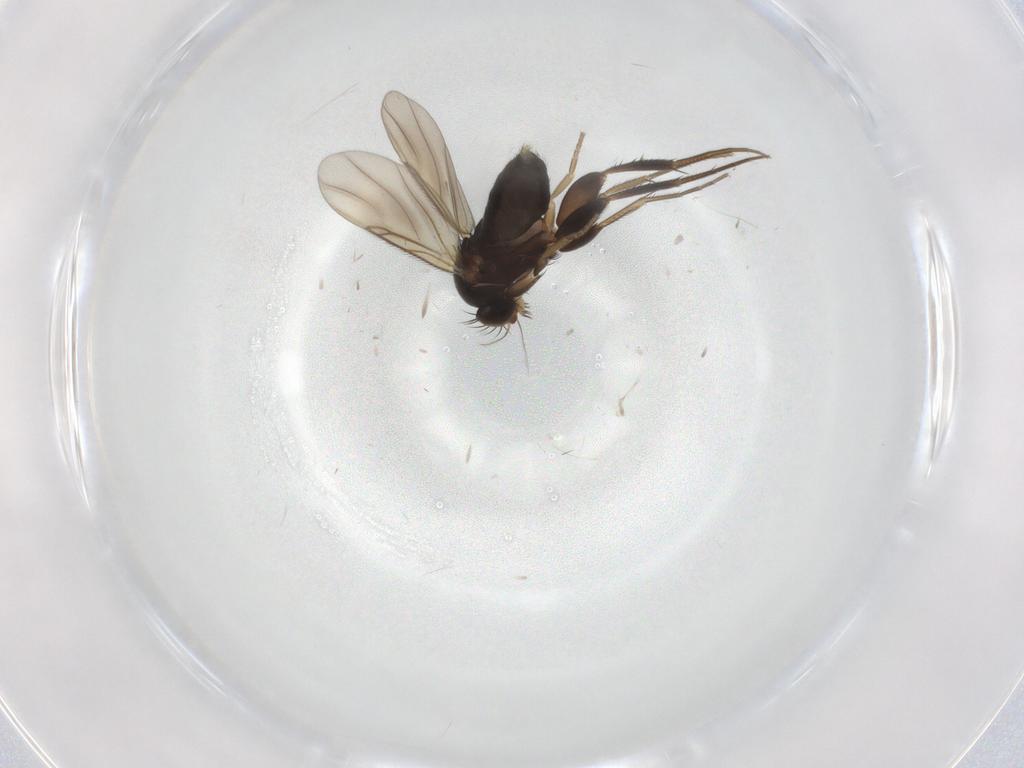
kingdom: Animalia
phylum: Arthropoda
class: Insecta
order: Diptera
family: Phoridae
